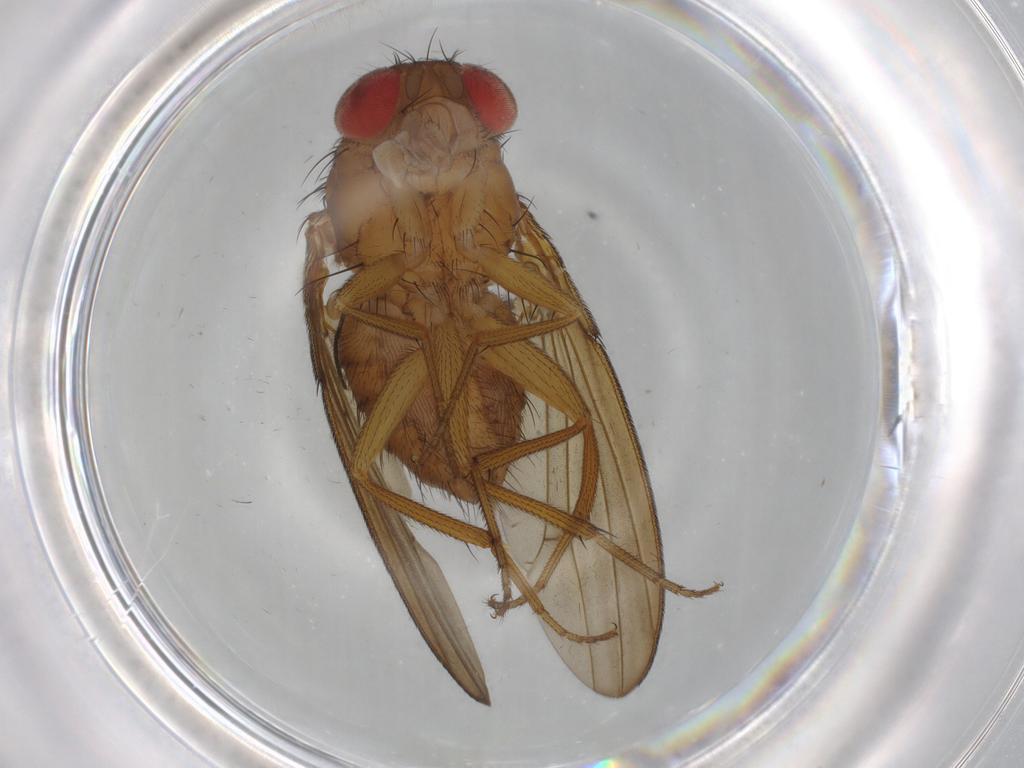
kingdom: Animalia
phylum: Arthropoda
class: Insecta
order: Diptera
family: Drosophilidae
